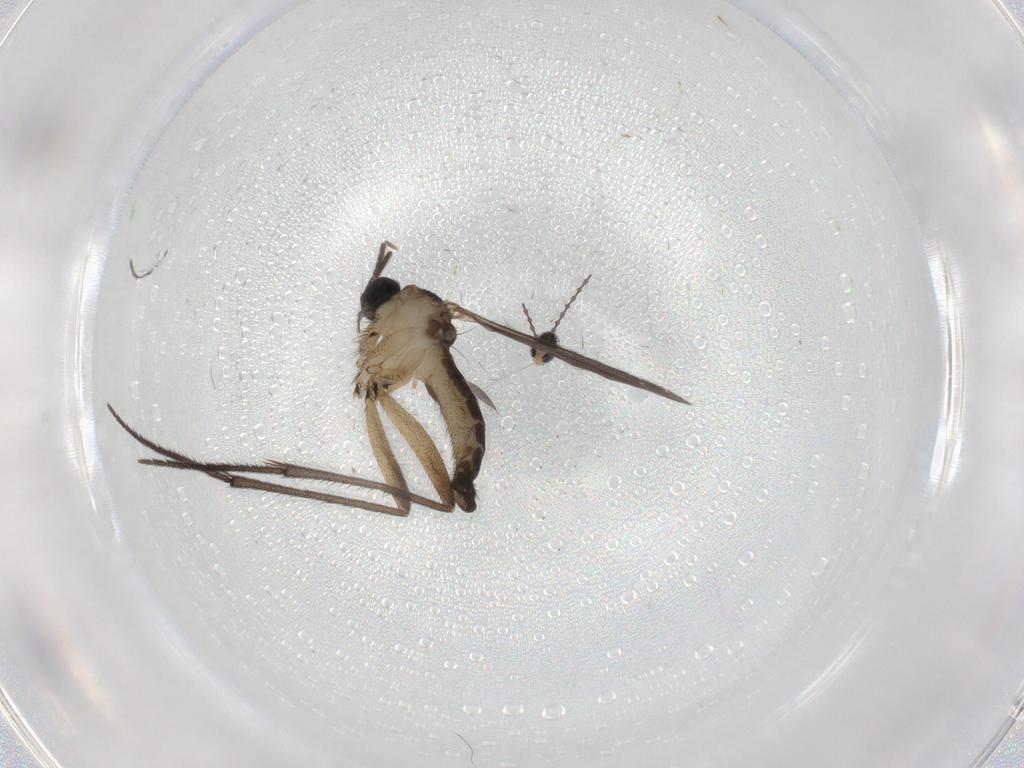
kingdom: Animalia
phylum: Arthropoda
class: Insecta
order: Diptera
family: Sciaridae
